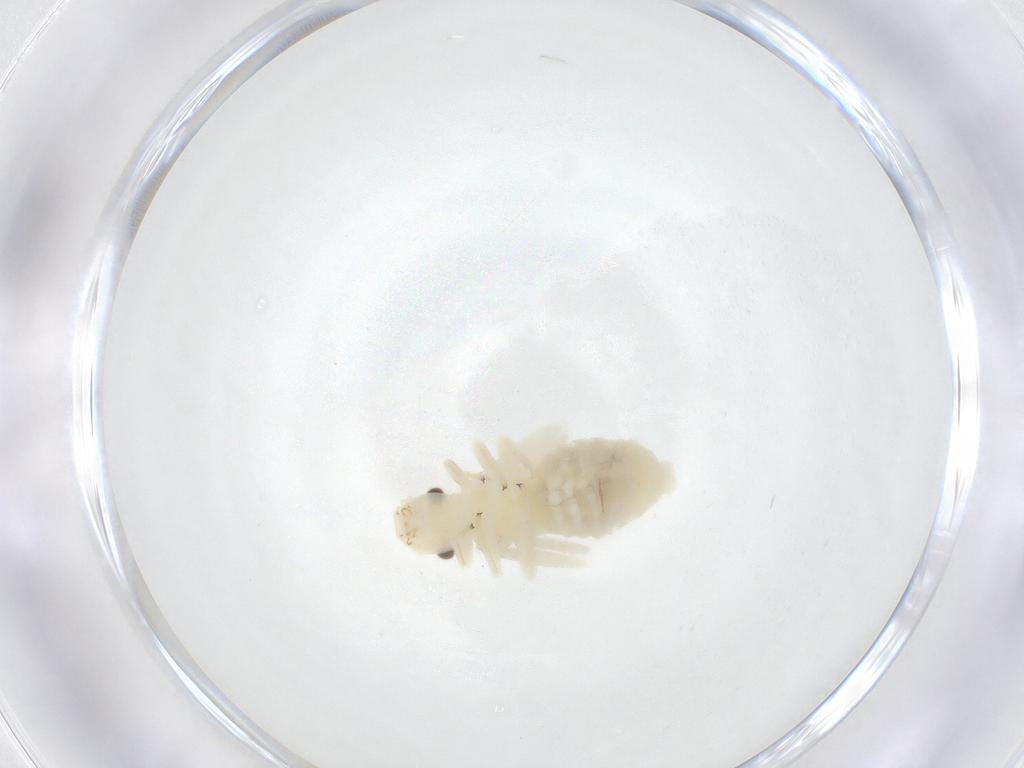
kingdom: Animalia
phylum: Arthropoda
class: Insecta
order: Psocodea
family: Caeciliusidae
